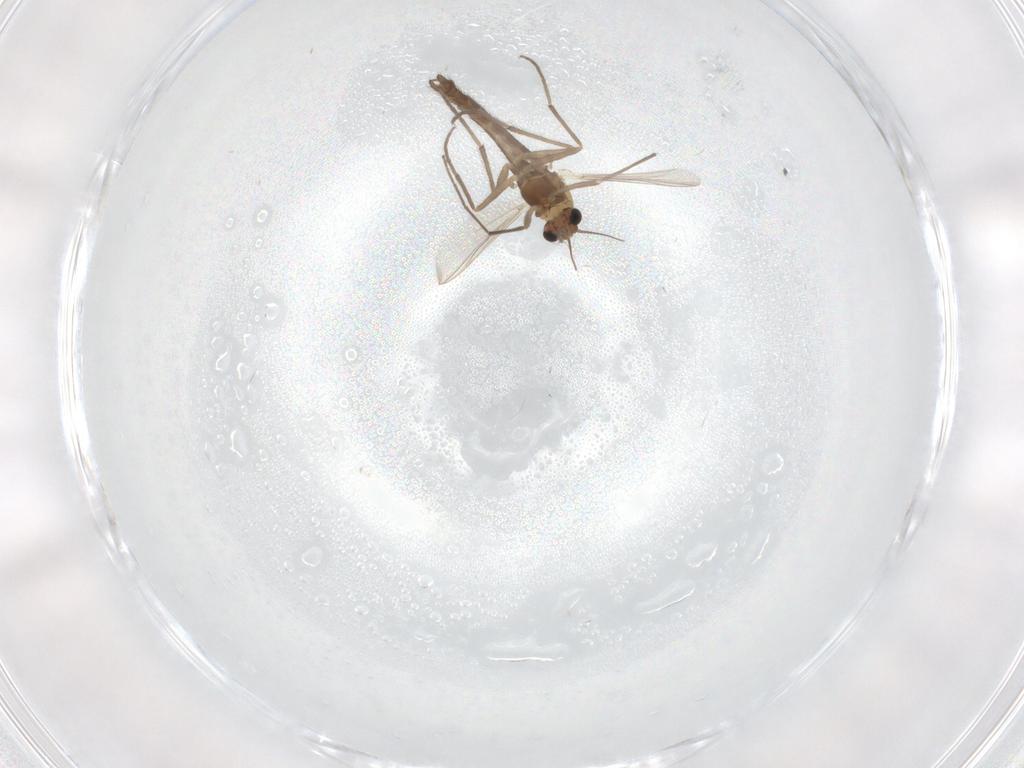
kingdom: Animalia
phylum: Arthropoda
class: Insecta
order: Diptera
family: Chironomidae
